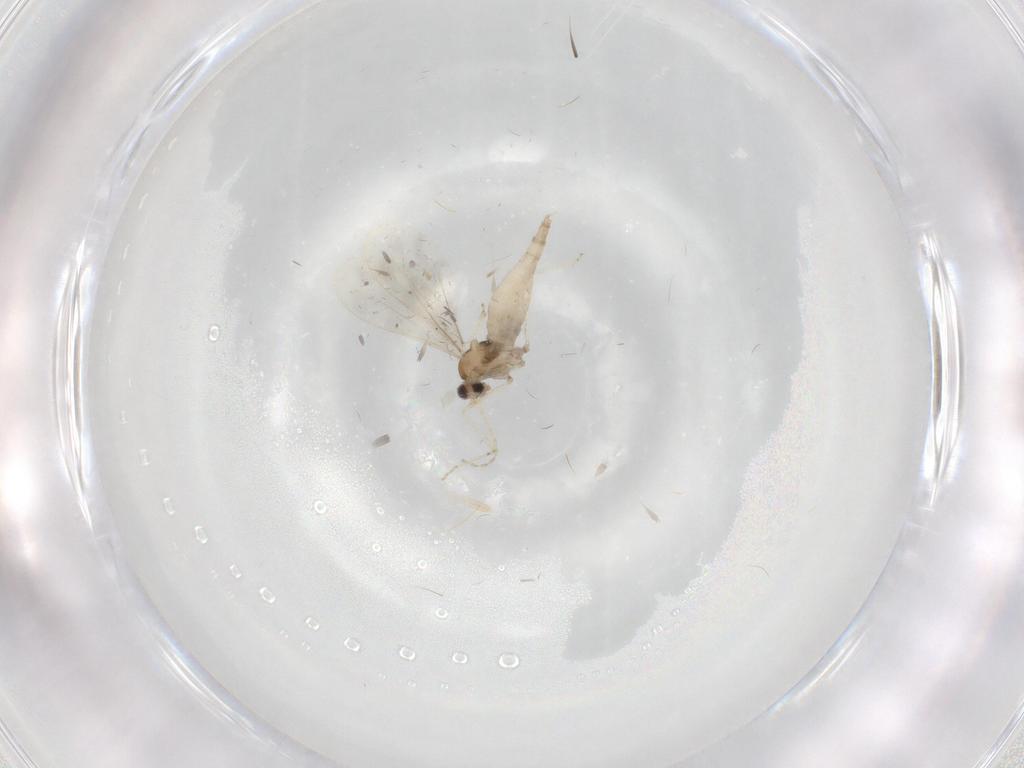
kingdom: Animalia
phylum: Arthropoda
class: Insecta
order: Diptera
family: Cecidomyiidae
